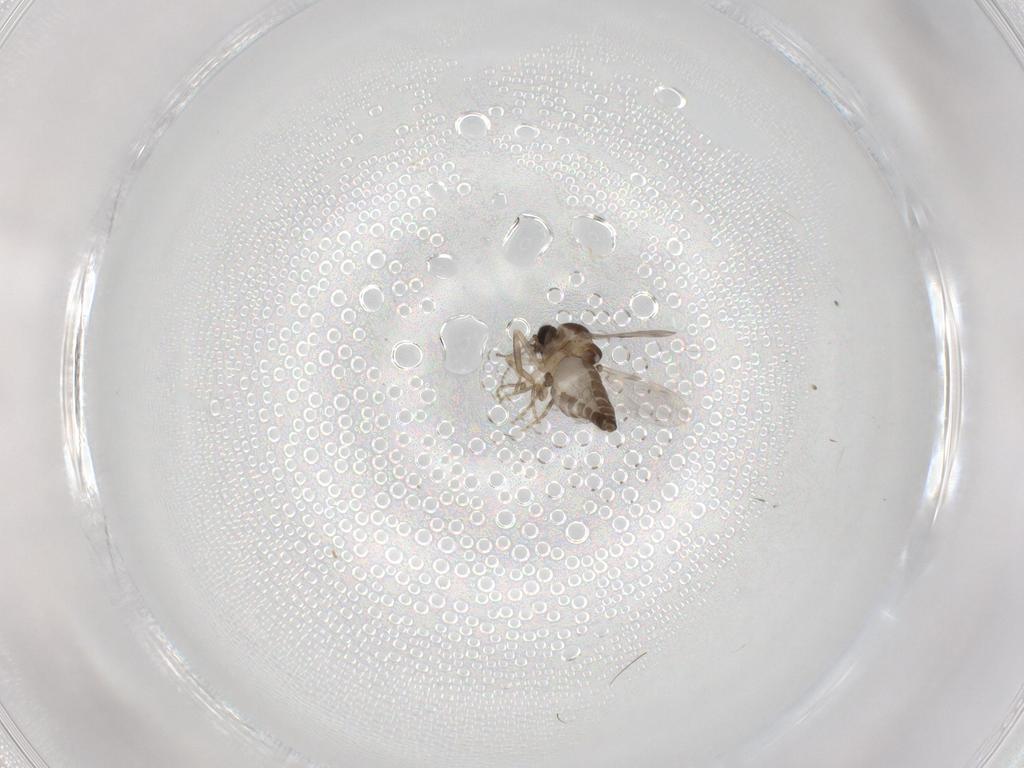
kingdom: Animalia
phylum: Arthropoda
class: Insecta
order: Diptera
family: Ceratopogonidae
